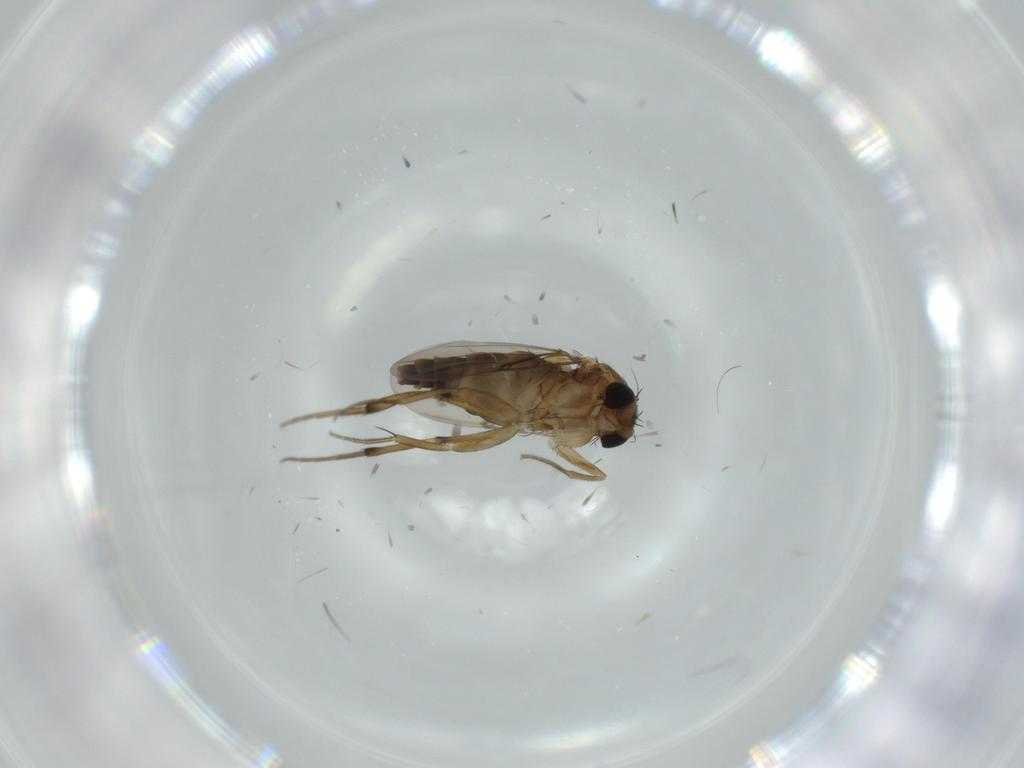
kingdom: Animalia
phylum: Arthropoda
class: Insecta
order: Diptera
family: Phoridae
